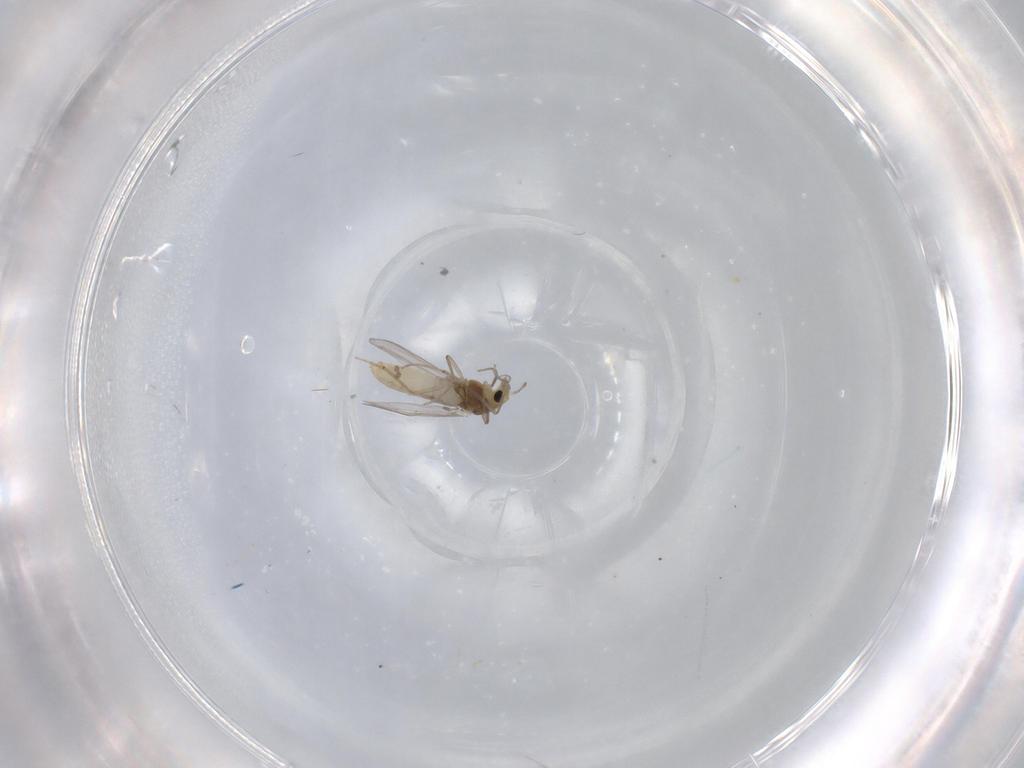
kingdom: Animalia
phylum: Arthropoda
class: Insecta
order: Diptera
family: Chironomidae
